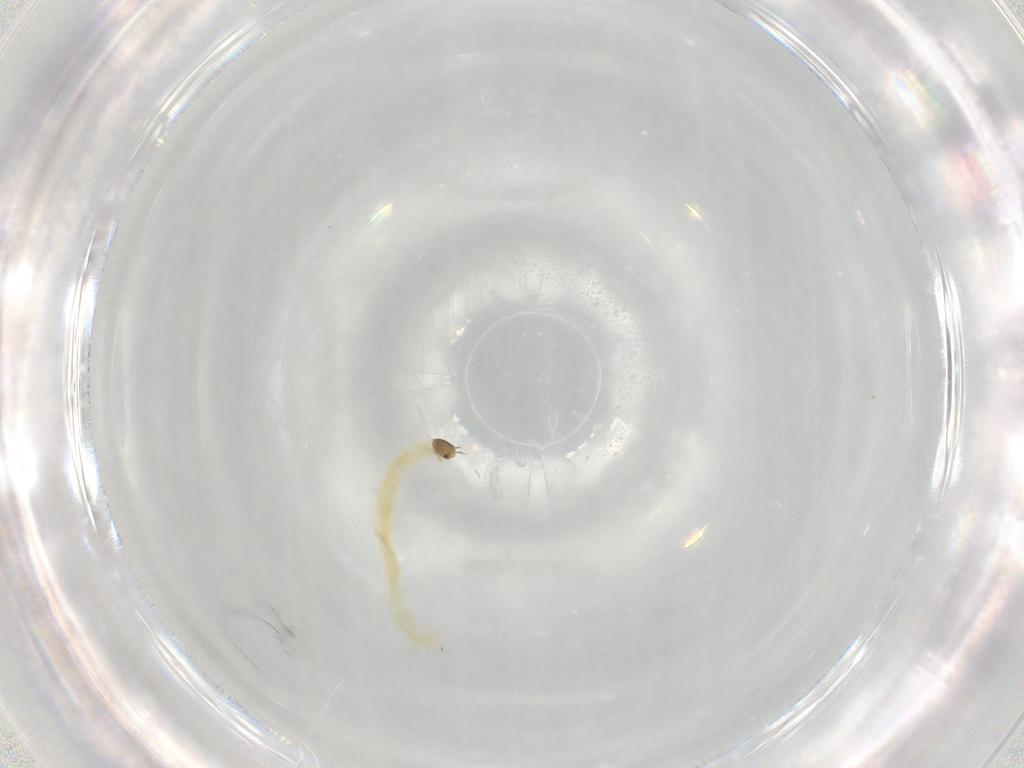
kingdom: Animalia
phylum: Arthropoda
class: Insecta
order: Diptera
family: Chironomidae
